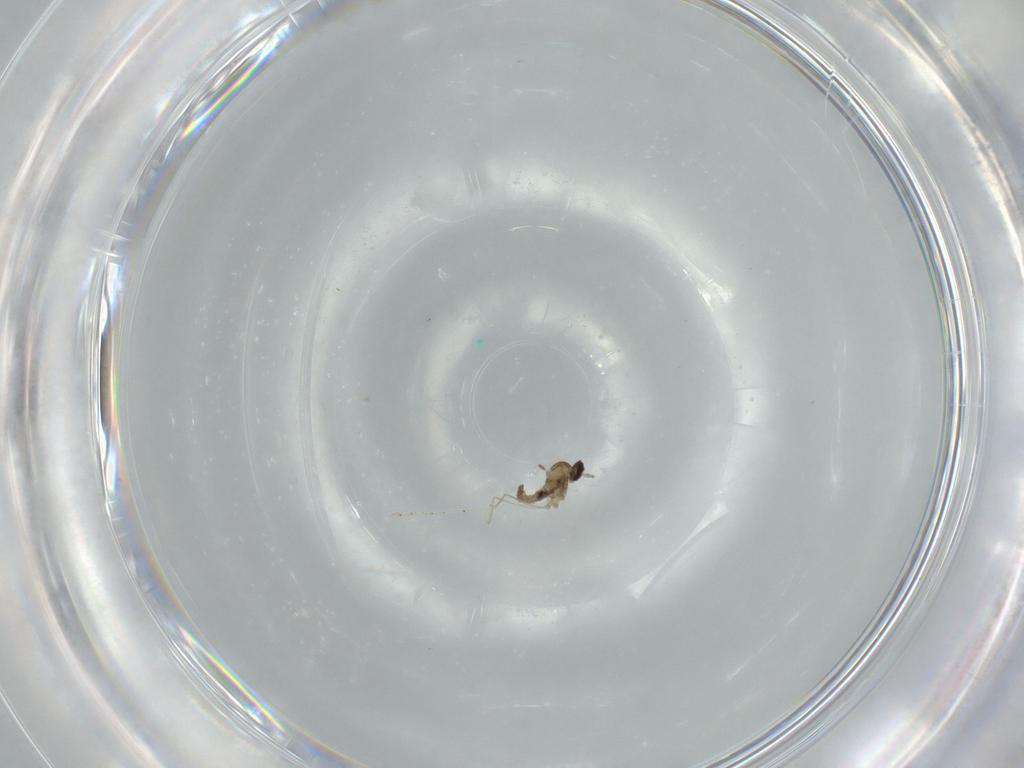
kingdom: Animalia
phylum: Arthropoda
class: Insecta
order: Diptera
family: Cecidomyiidae
